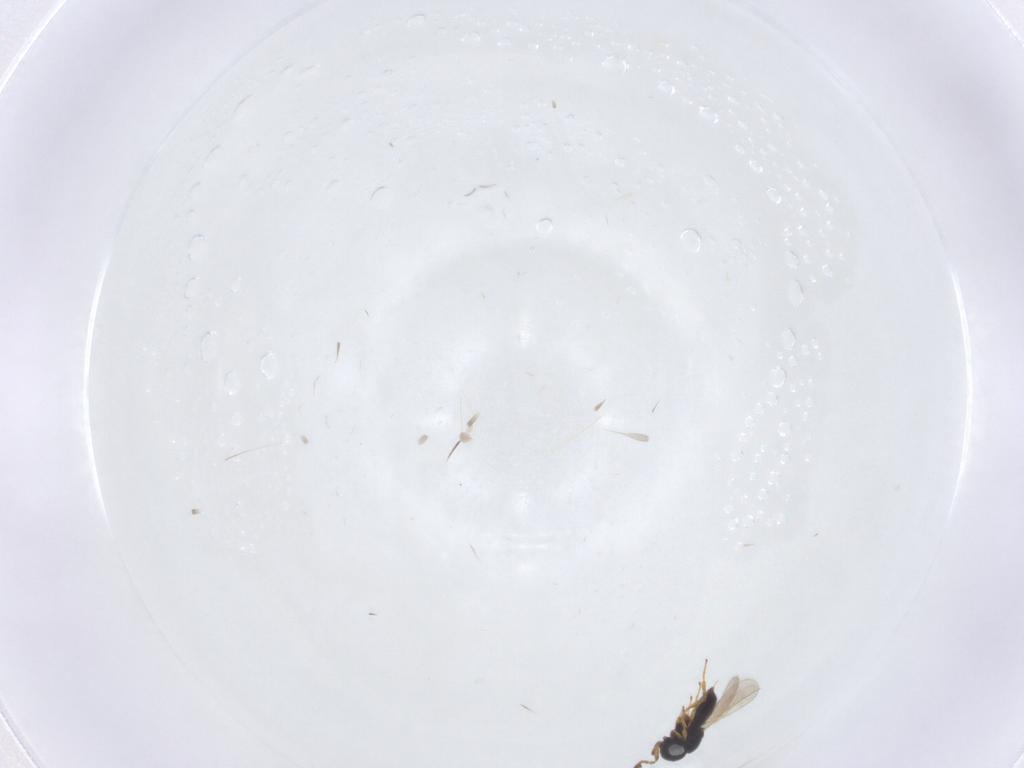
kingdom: Animalia
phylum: Arthropoda
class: Insecta
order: Hymenoptera
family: Scelionidae
